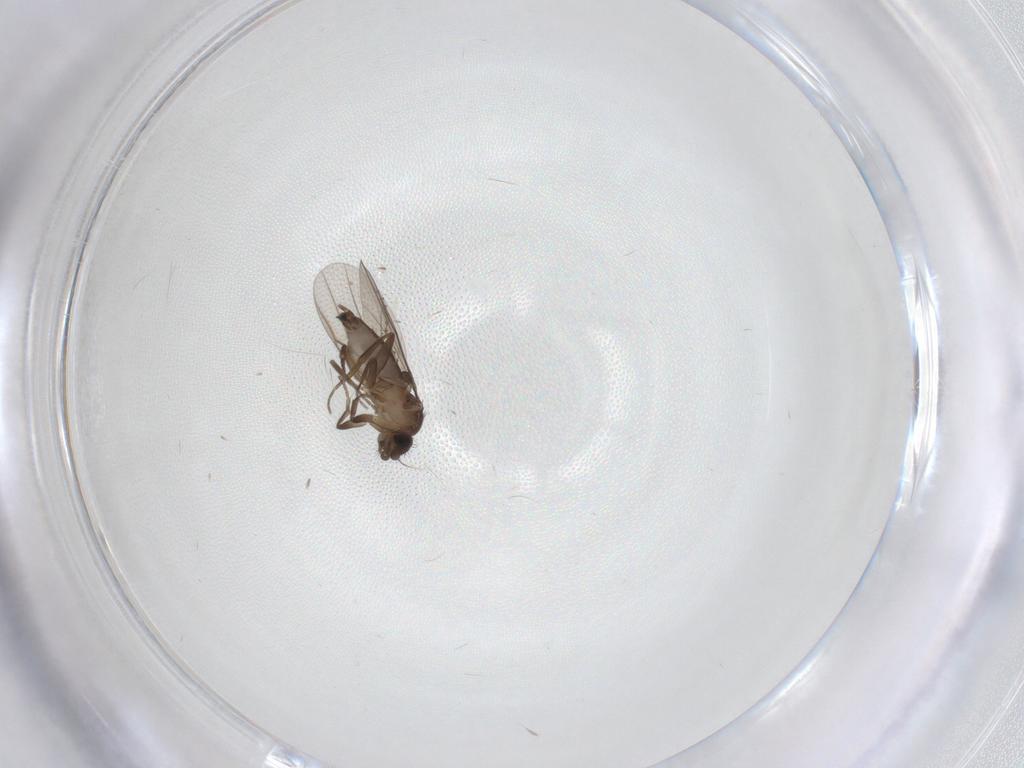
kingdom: Animalia
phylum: Arthropoda
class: Insecta
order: Diptera
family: Cecidomyiidae
